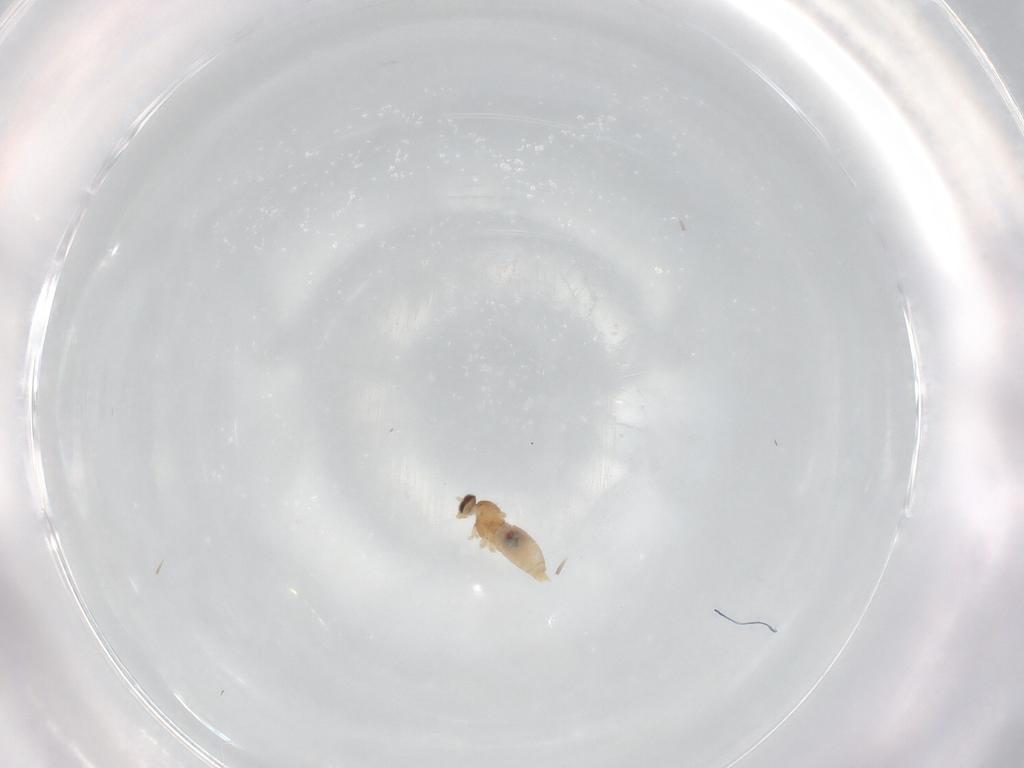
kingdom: Animalia
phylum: Arthropoda
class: Insecta
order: Diptera
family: Cecidomyiidae
